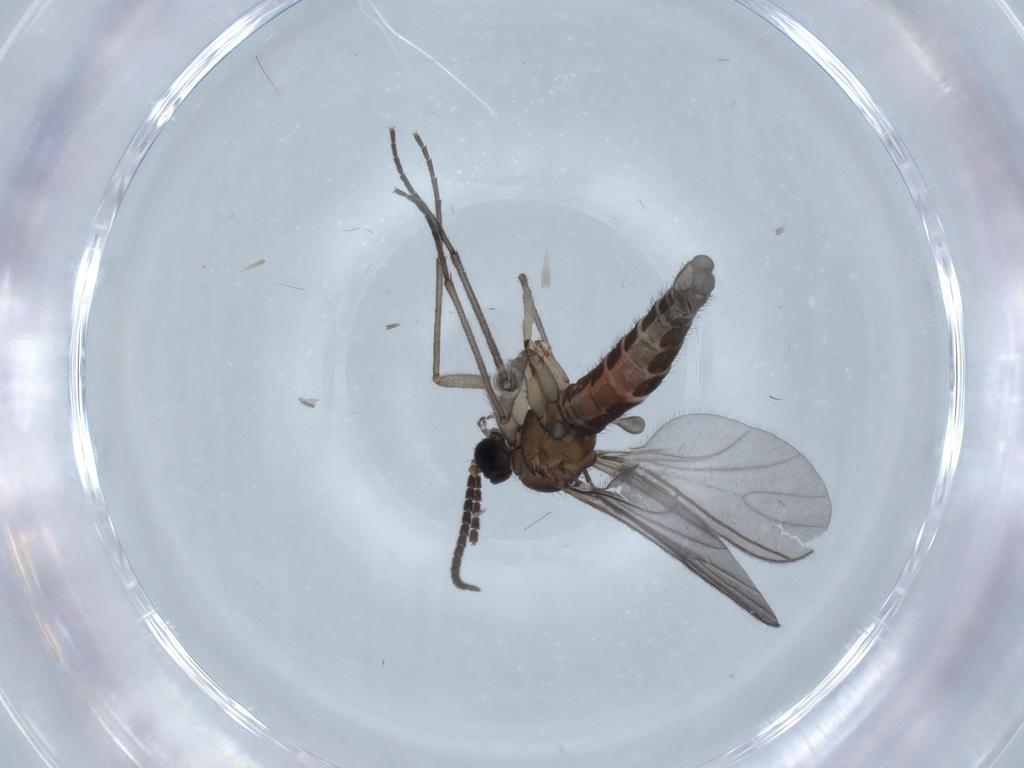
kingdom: Animalia
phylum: Arthropoda
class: Insecta
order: Diptera
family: Sciaridae
